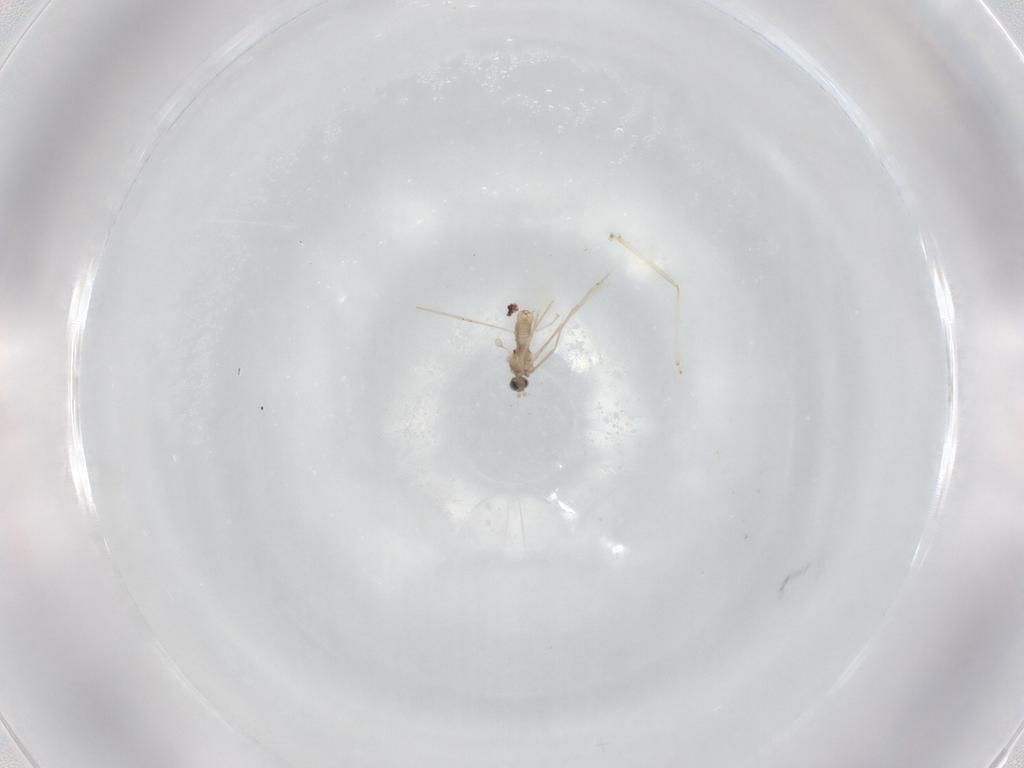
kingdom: Animalia
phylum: Arthropoda
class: Insecta
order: Diptera
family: Cecidomyiidae
